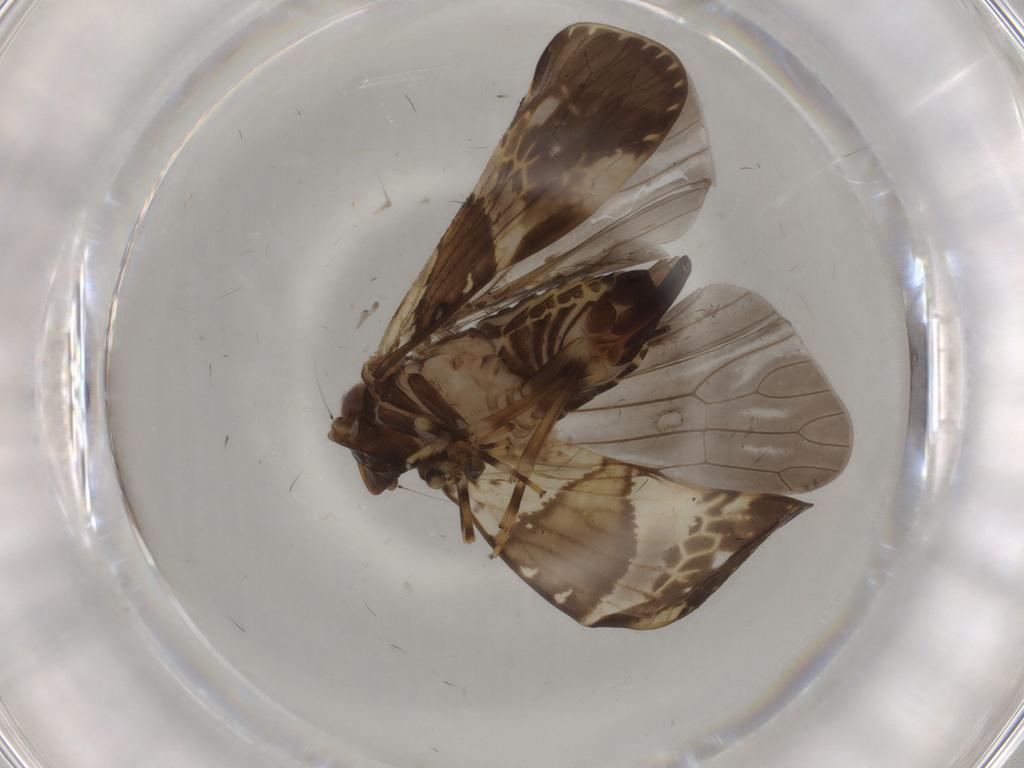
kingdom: Animalia
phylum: Arthropoda
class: Insecta
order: Hemiptera
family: Cixiidae
